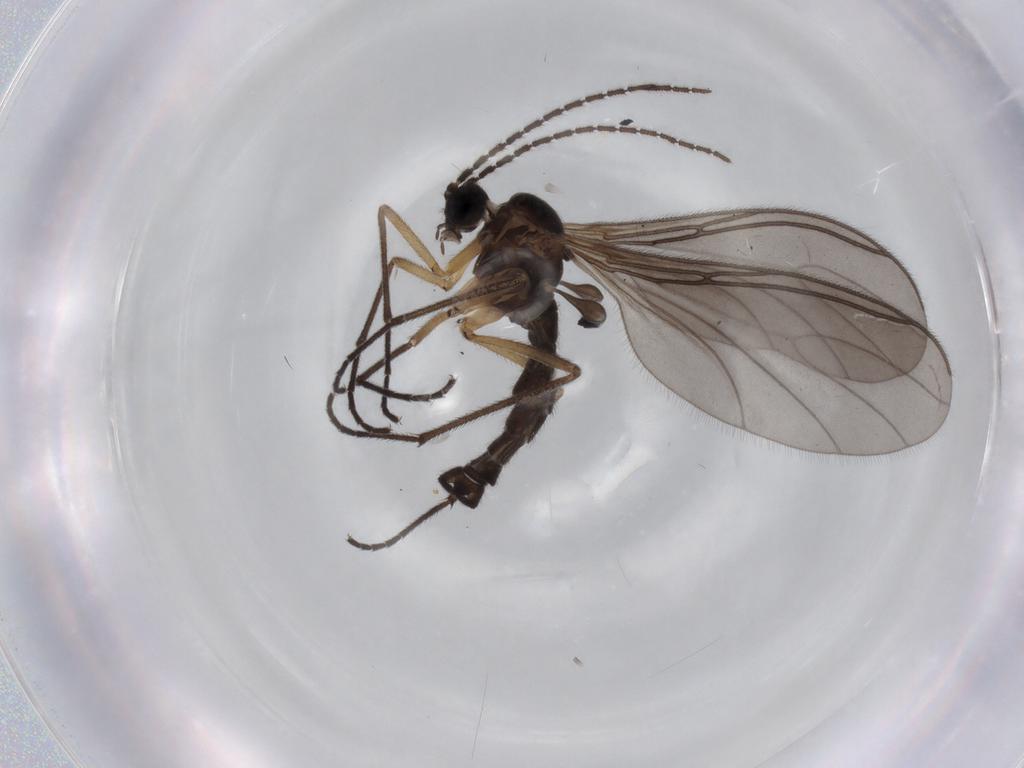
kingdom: Animalia
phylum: Arthropoda
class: Insecta
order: Diptera
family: Sciaridae
